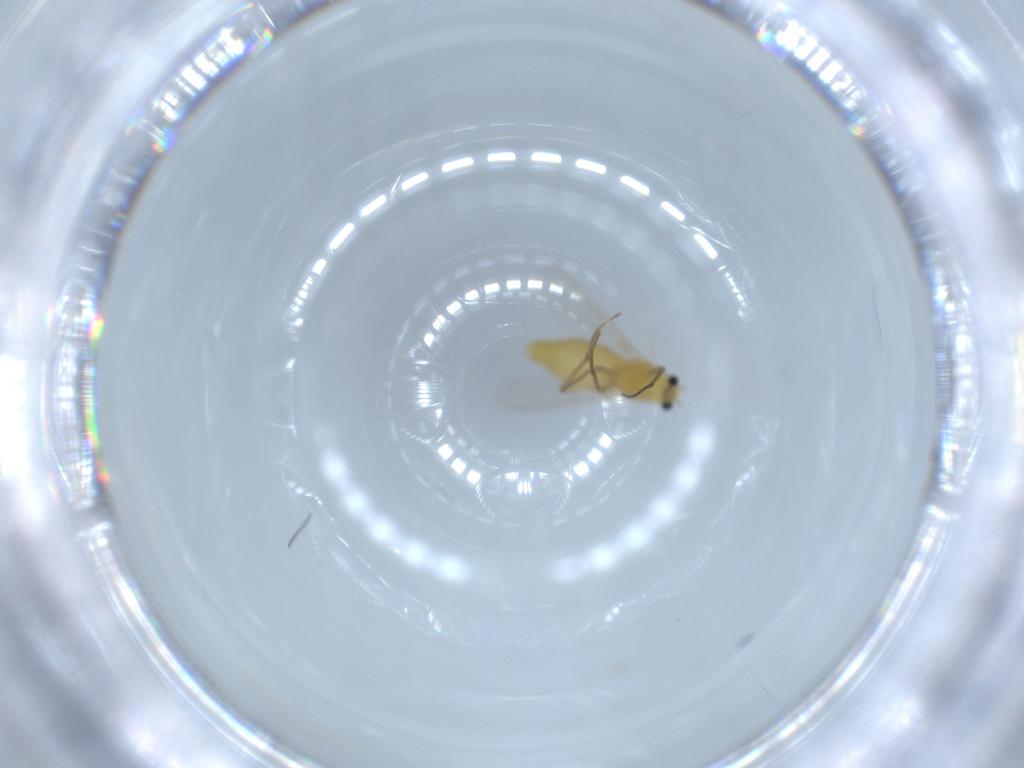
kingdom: Animalia
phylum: Arthropoda
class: Insecta
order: Diptera
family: Chironomidae
